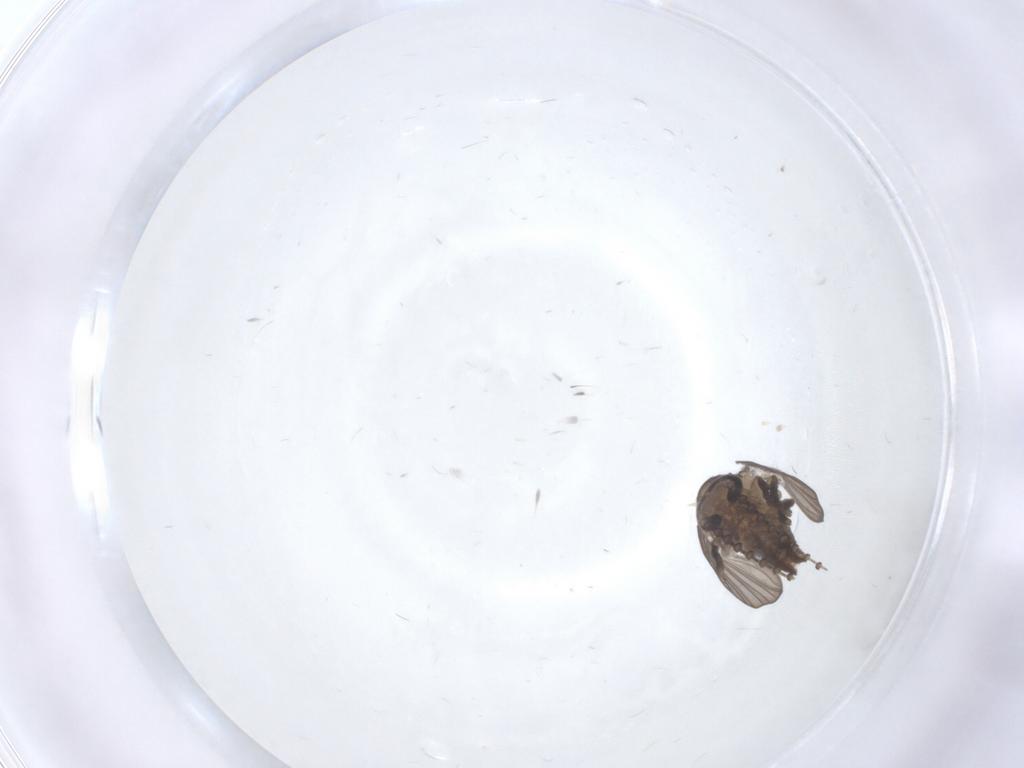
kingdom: Animalia
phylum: Arthropoda
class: Insecta
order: Diptera
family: Psychodidae
